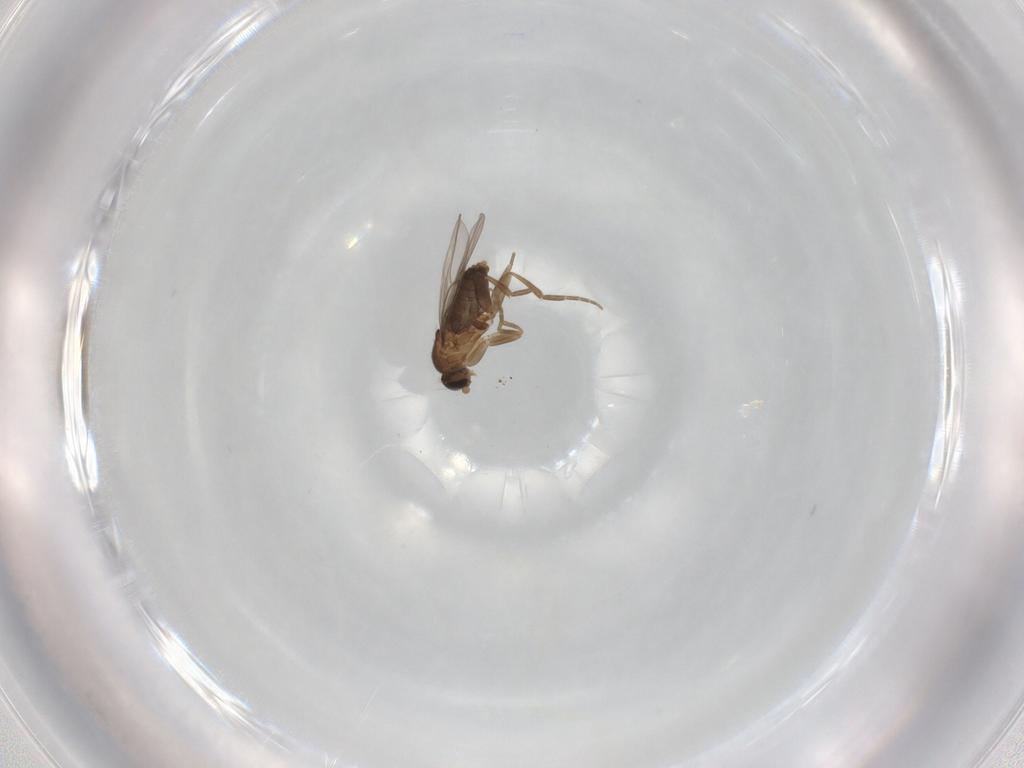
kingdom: Animalia
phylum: Arthropoda
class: Insecta
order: Diptera
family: Phoridae
